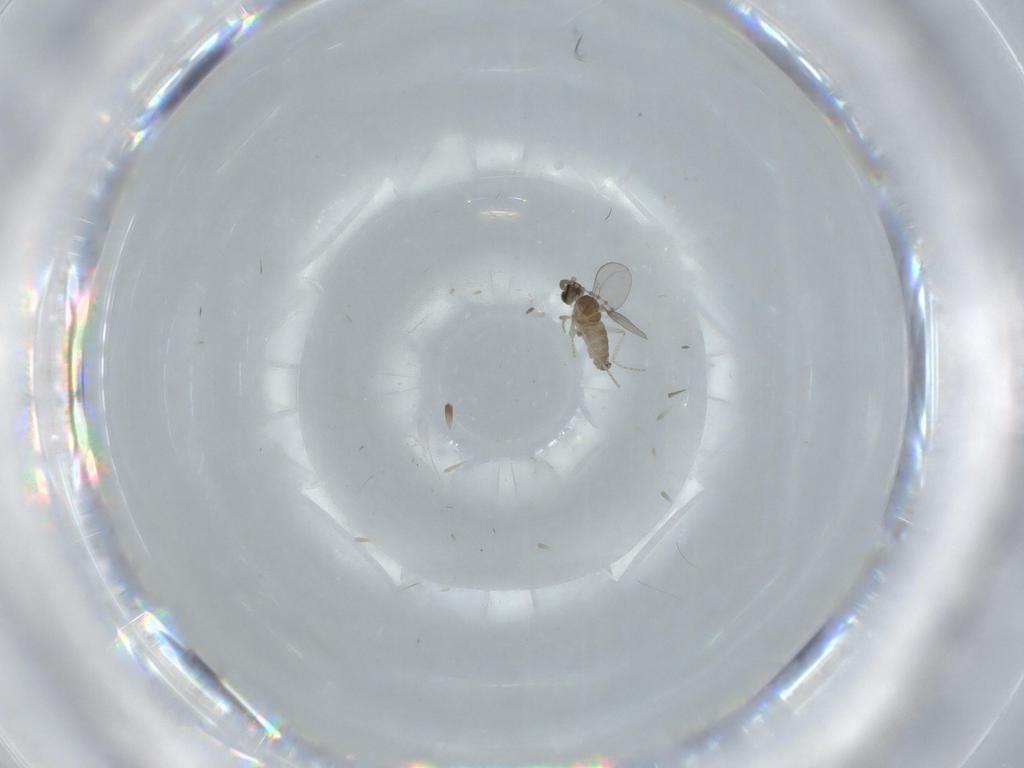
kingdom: Animalia
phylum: Arthropoda
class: Insecta
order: Diptera
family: Cecidomyiidae
